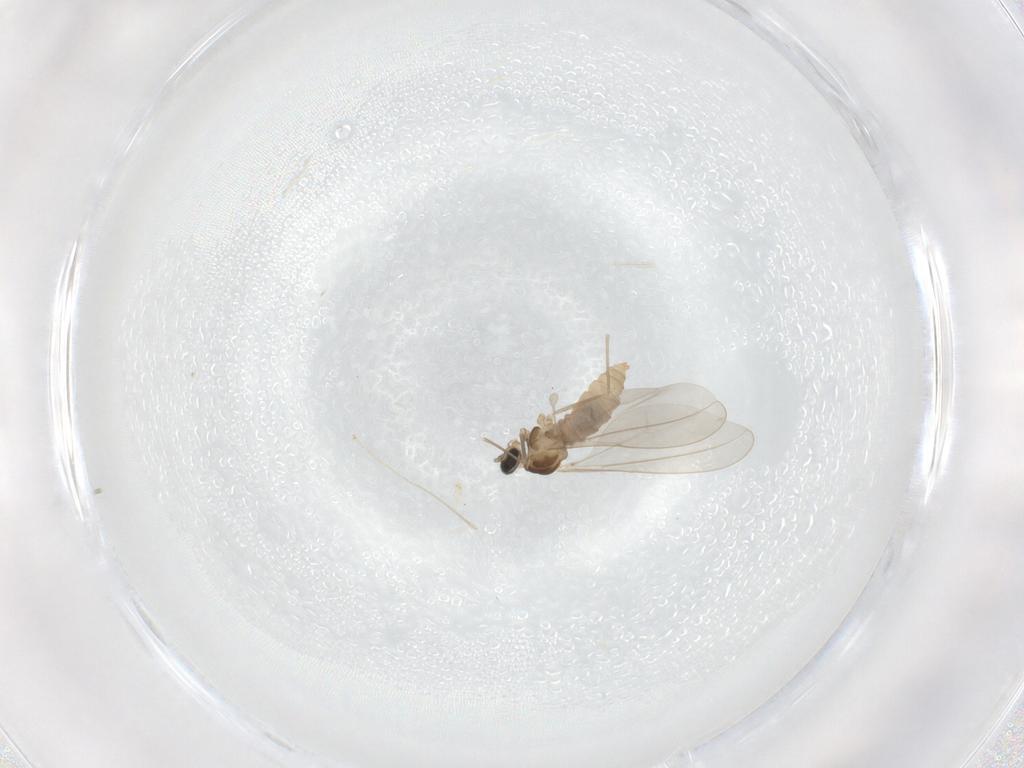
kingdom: Animalia
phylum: Arthropoda
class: Insecta
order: Diptera
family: Cecidomyiidae
